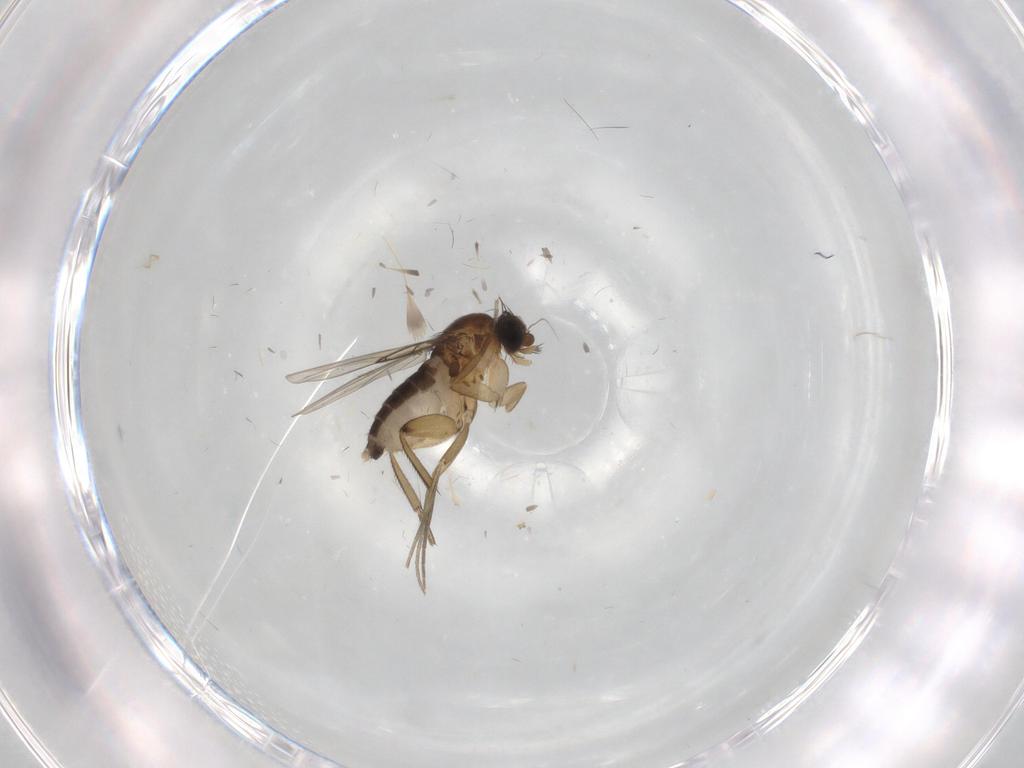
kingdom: Animalia
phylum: Arthropoda
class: Insecta
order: Diptera
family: Phoridae
